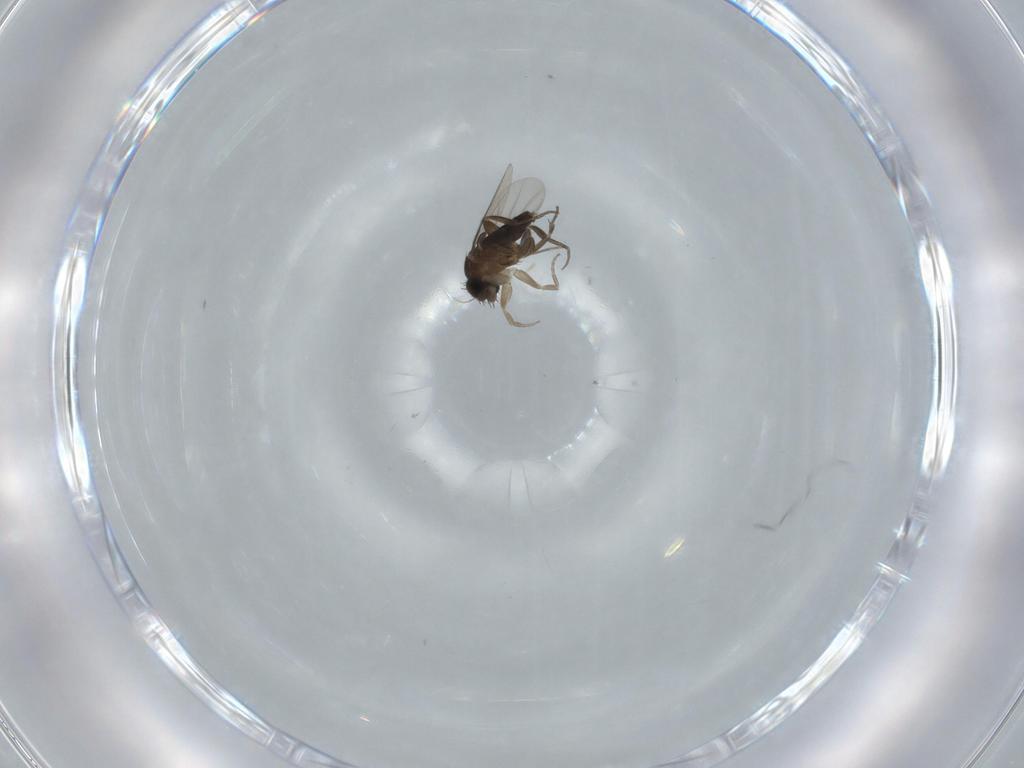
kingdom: Animalia
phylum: Arthropoda
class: Insecta
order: Diptera
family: Phoridae
